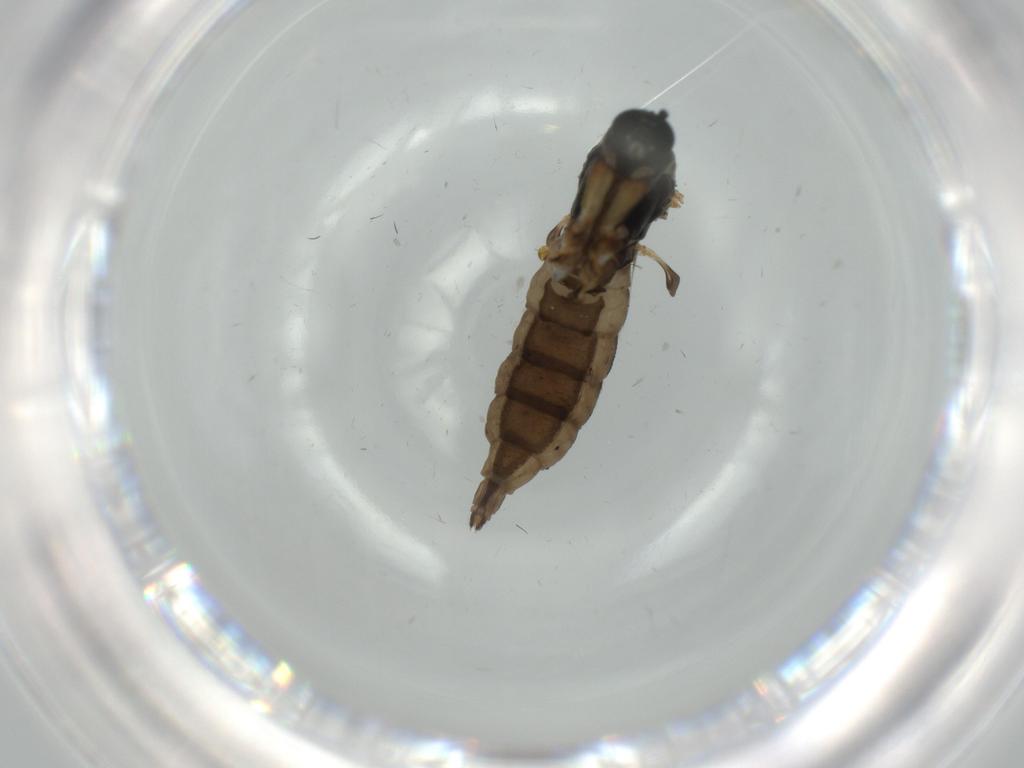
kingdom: Animalia
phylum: Arthropoda
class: Insecta
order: Diptera
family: Sciaridae
